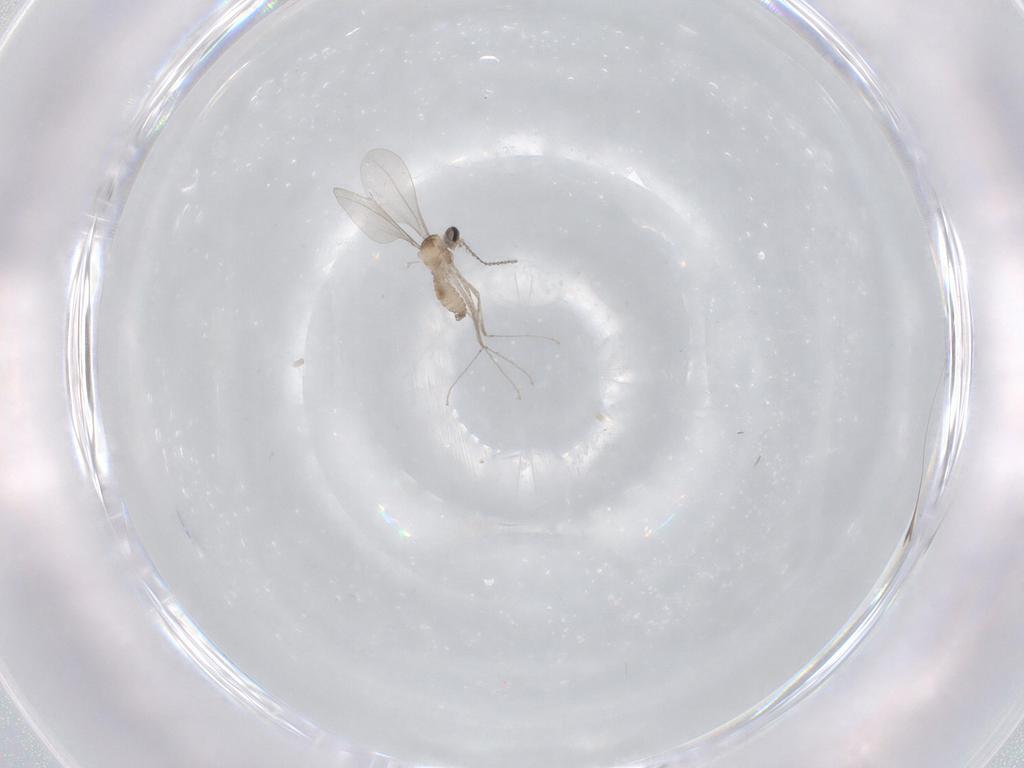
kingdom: Animalia
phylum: Arthropoda
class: Insecta
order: Diptera
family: Cecidomyiidae
